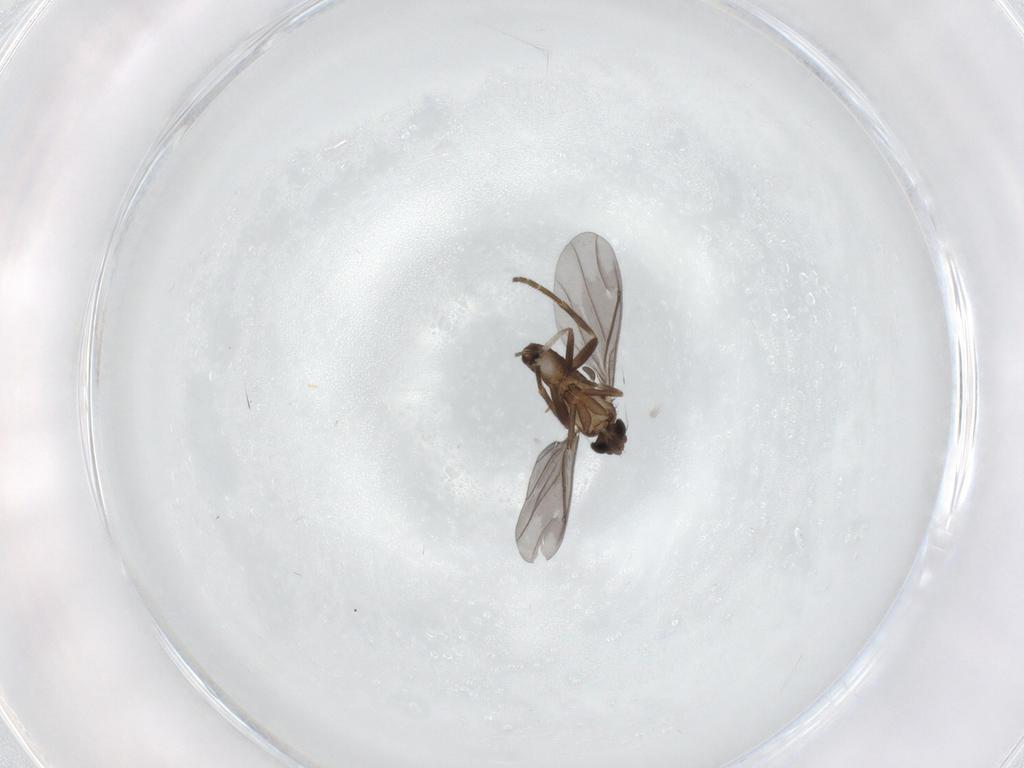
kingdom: Animalia
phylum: Arthropoda
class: Insecta
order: Diptera
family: Phoridae
